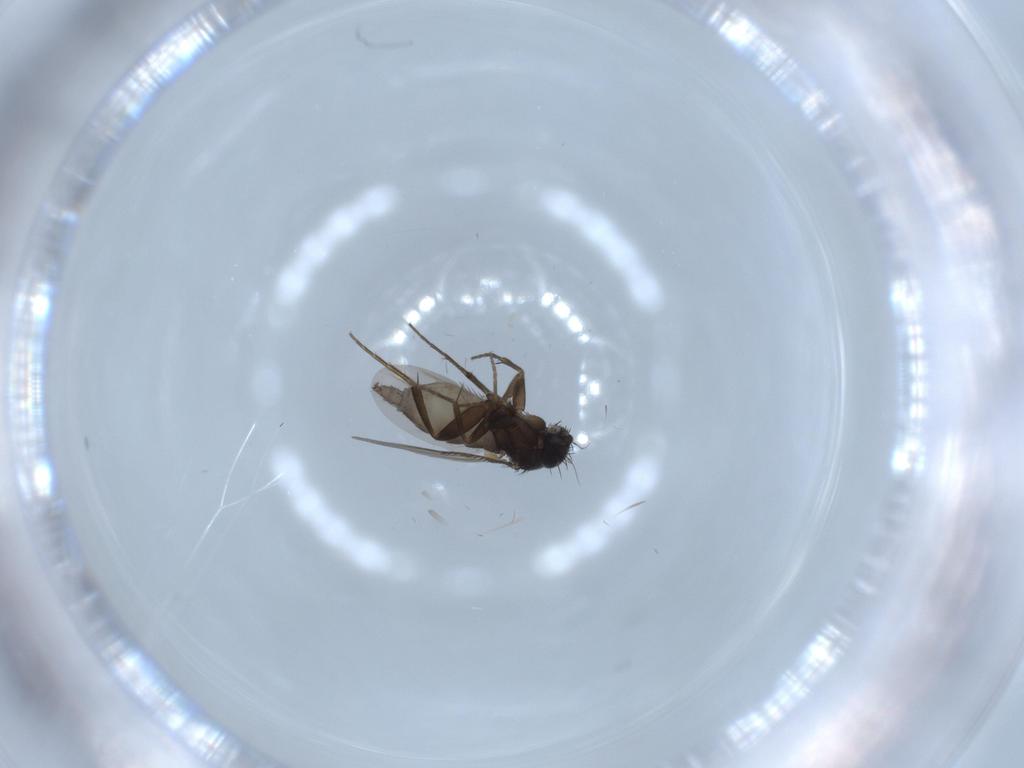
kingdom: Animalia
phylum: Arthropoda
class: Insecta
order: Diptera
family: Phoridae
